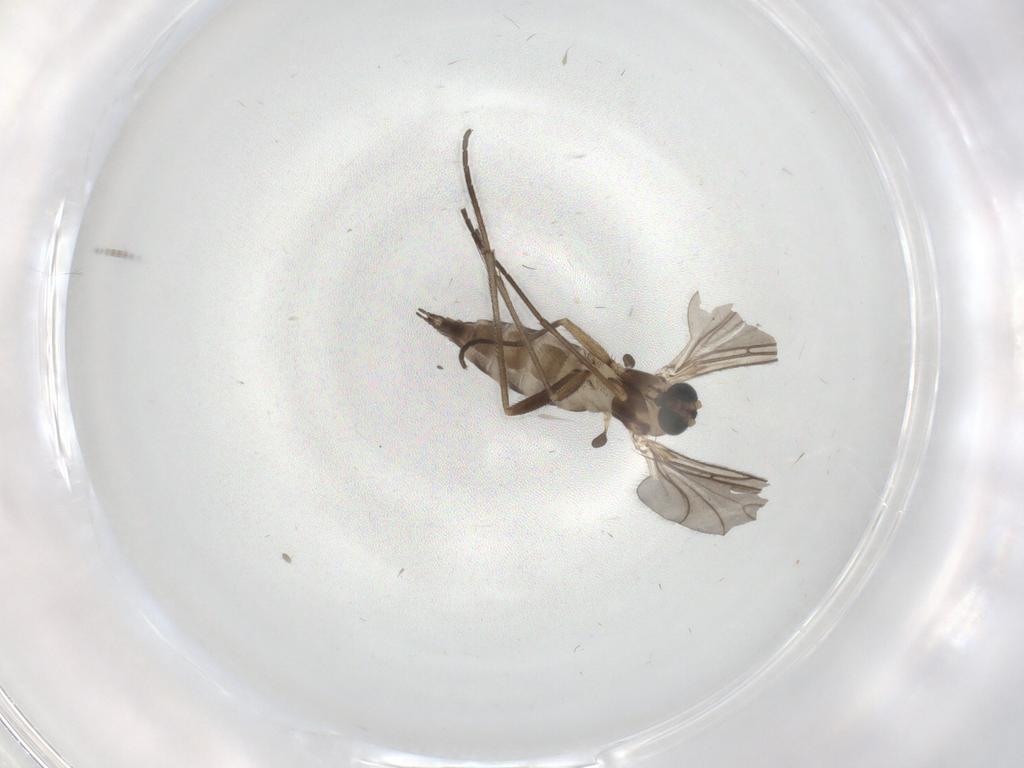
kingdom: Animalia
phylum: Arthropoda
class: Insecta
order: Diptera
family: Sciaridae
